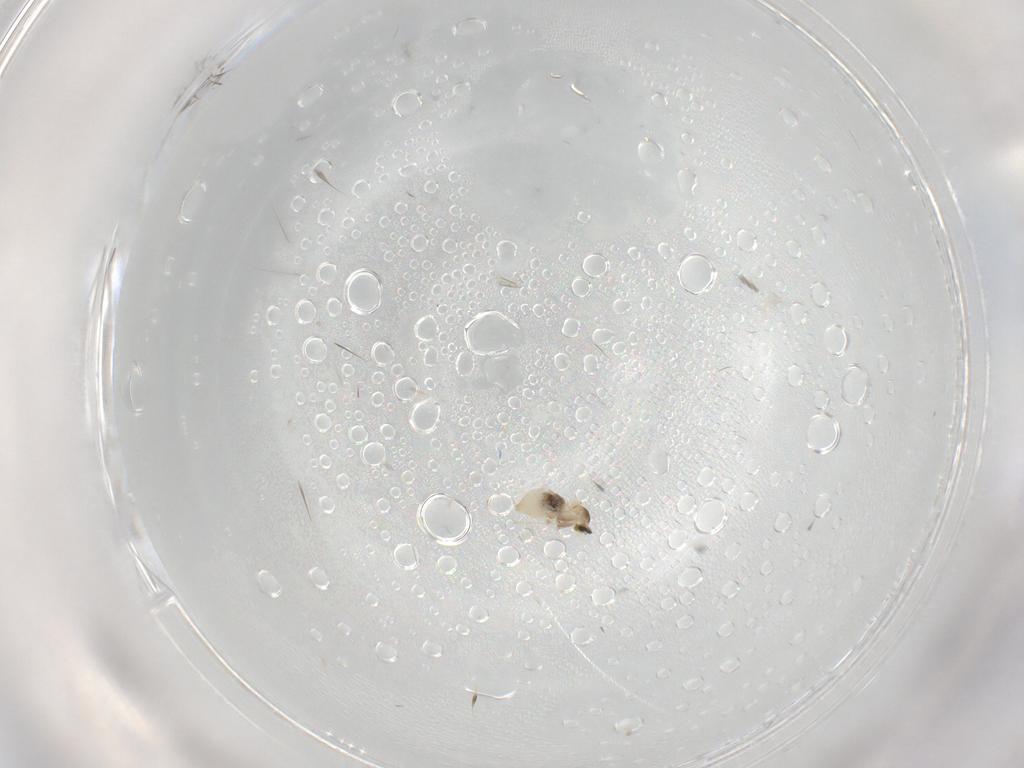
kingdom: Animalia
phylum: Arthropoda
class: Insecta
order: Diptera
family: Cecidomyiidae
